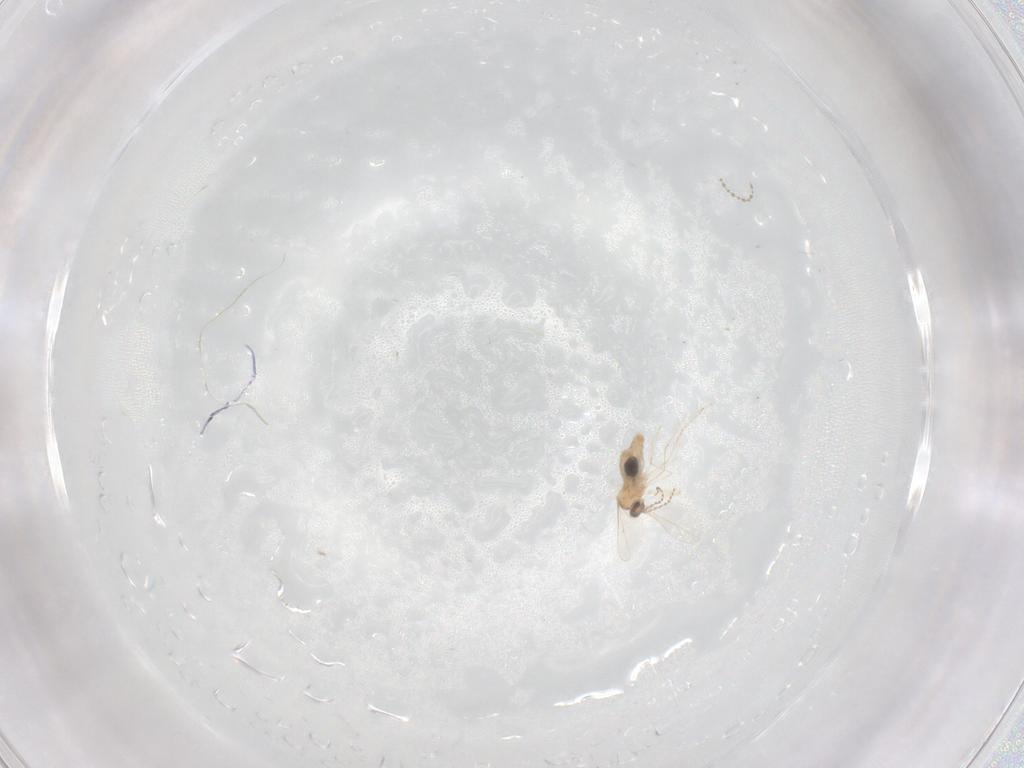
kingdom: Animalia
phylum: Arthropoda
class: Insecta
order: Diptera
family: Cecidomyiidae
